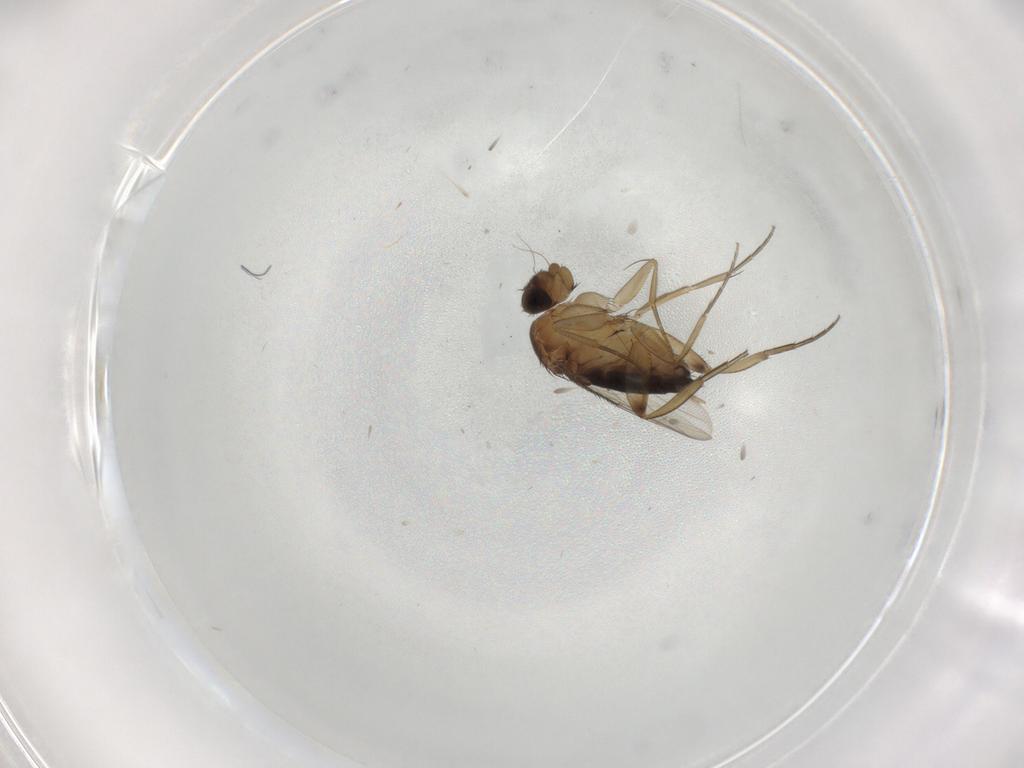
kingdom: Animalia
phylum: Arthropoda
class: Insecta
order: Diptera
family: Phoridae
